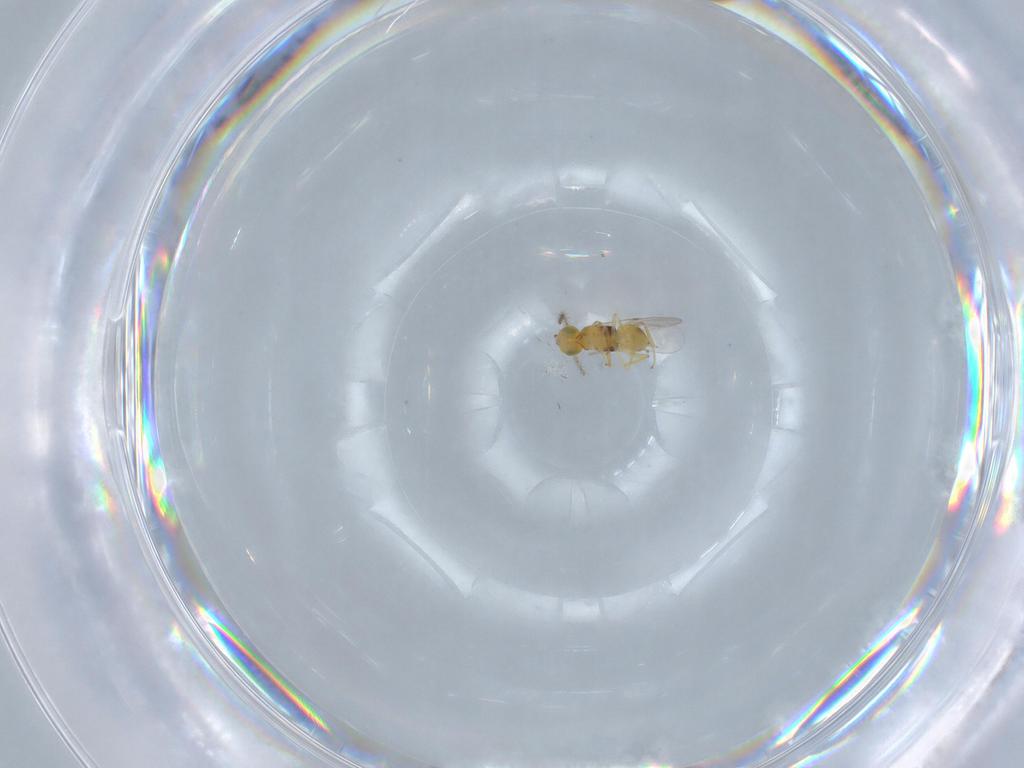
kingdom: Animalia
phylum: Arthropoda
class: Insecta
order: Hymenoptera
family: Encyrtidae
